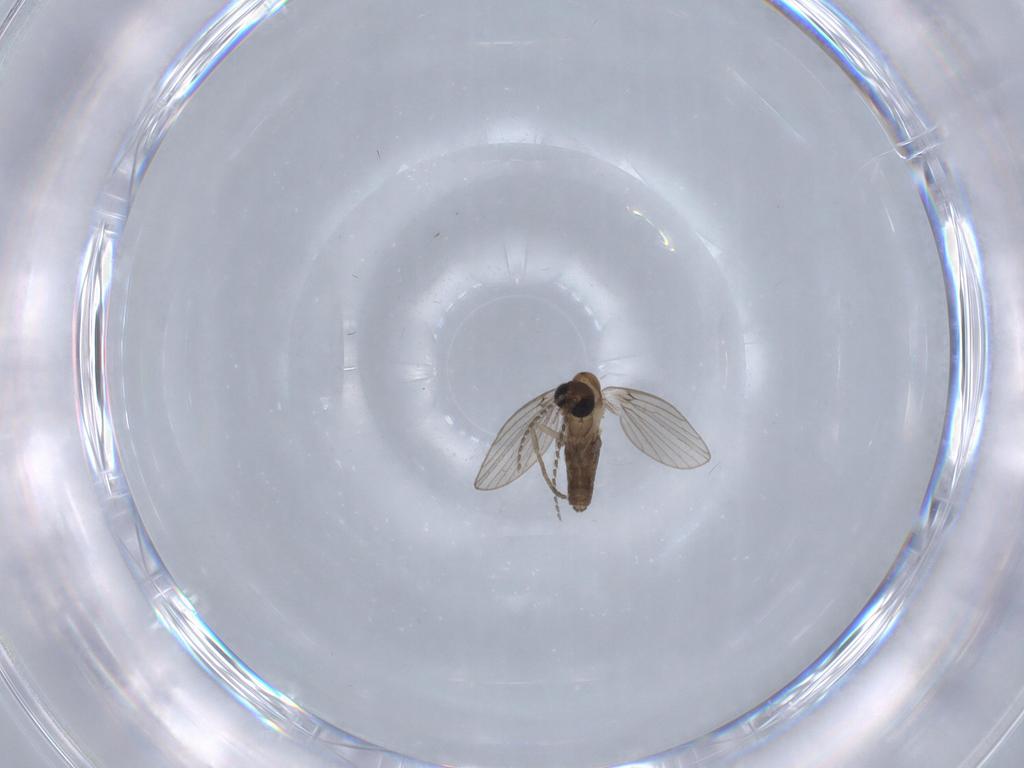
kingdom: Animalia
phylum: Arthropoda
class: Insecta
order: Diptera
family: Psychodidae
